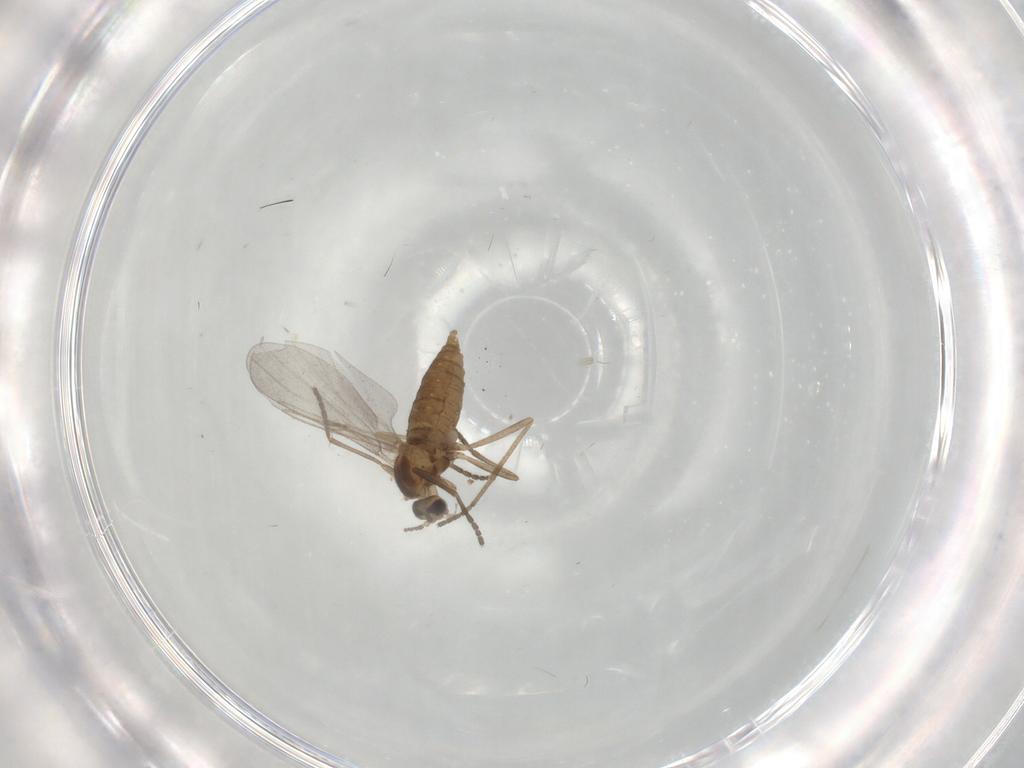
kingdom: Animalia
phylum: Arthropoda
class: Insecta
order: Diptera
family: Cecidomyiidae
